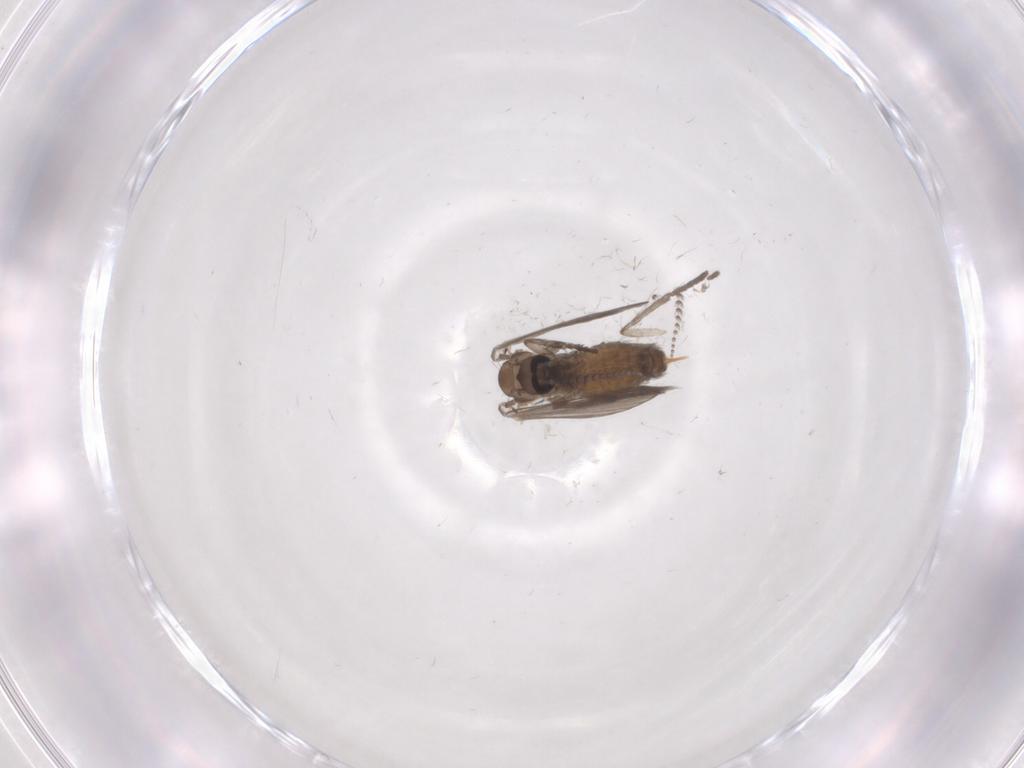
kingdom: Animalia
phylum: Arthropoda
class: Insecta
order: Diptera
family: Psychodidae
